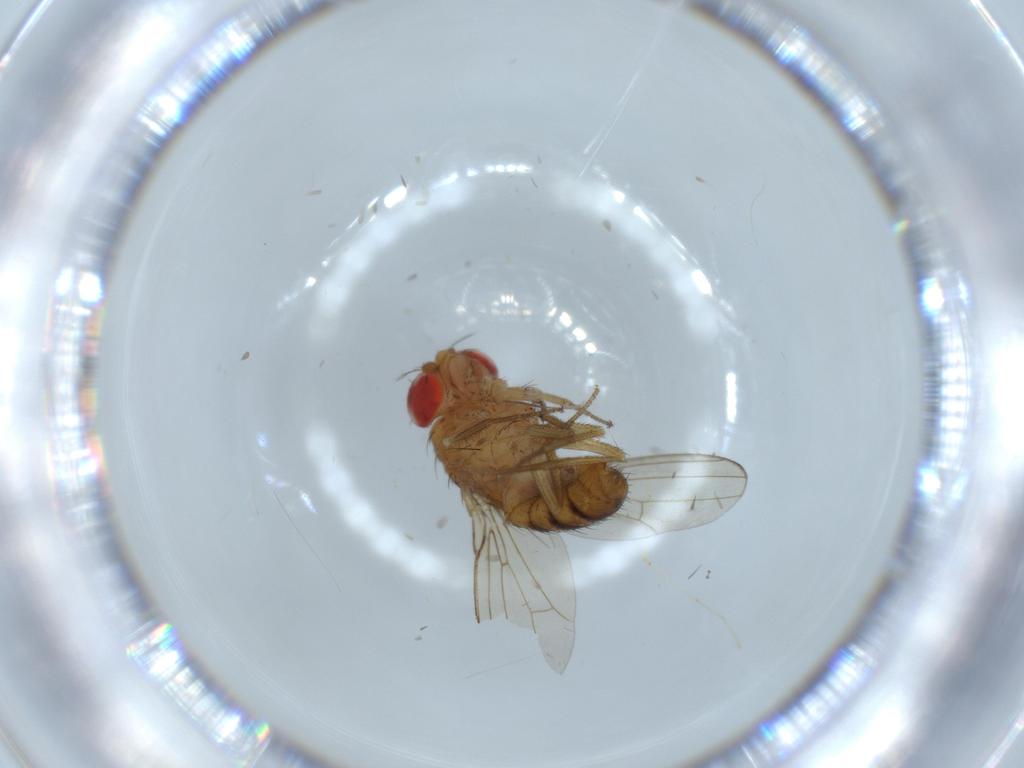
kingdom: Animalia
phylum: Arthropoda
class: Insecta
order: Diptera
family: Drosophilidae
